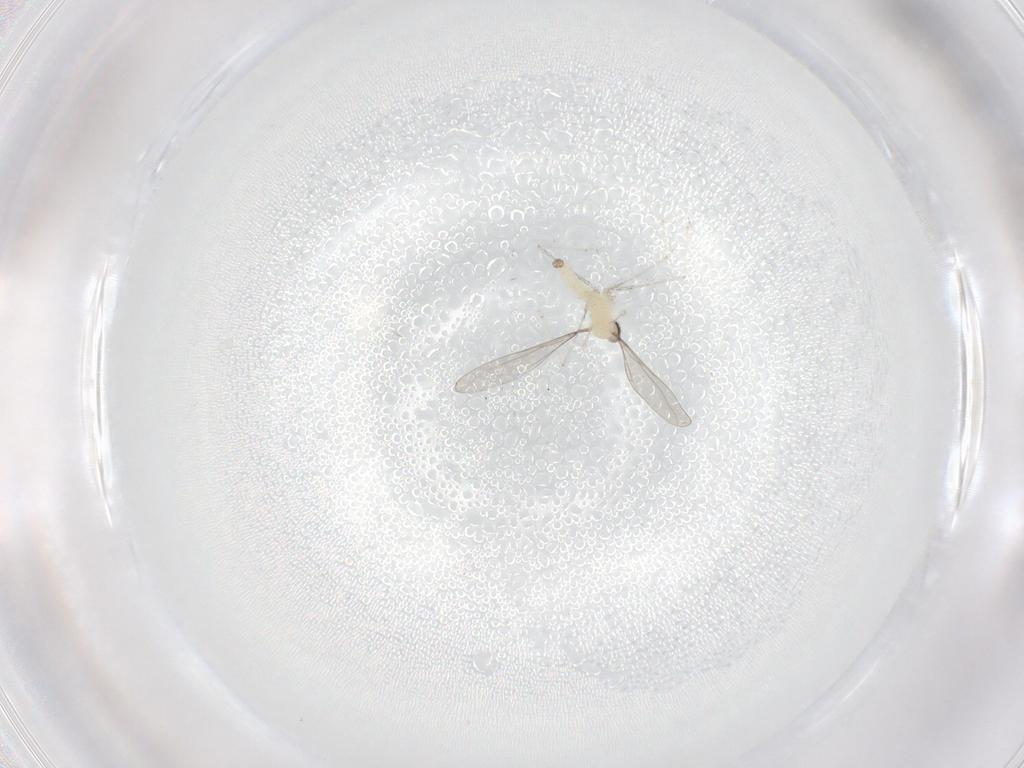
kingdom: Animalia
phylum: Arthropoda
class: Insecta
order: Diptera
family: Cecidomyiidae
